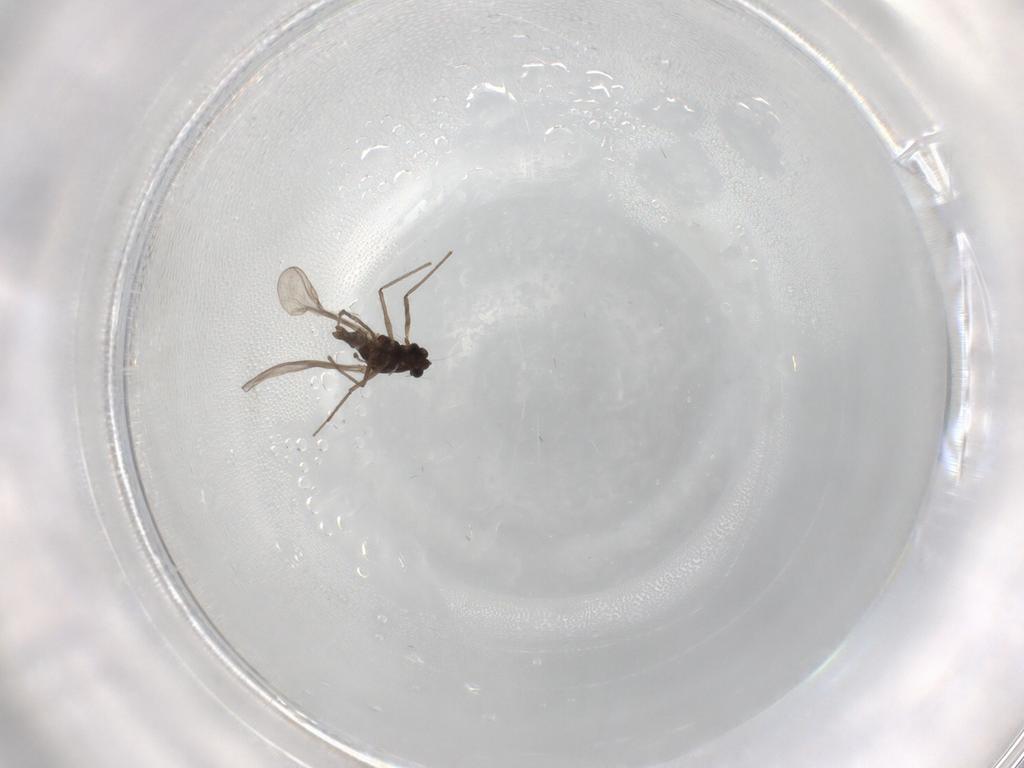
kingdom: Animalia
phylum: Arthropoda
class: Insecta
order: Diptera
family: Chironomidae
